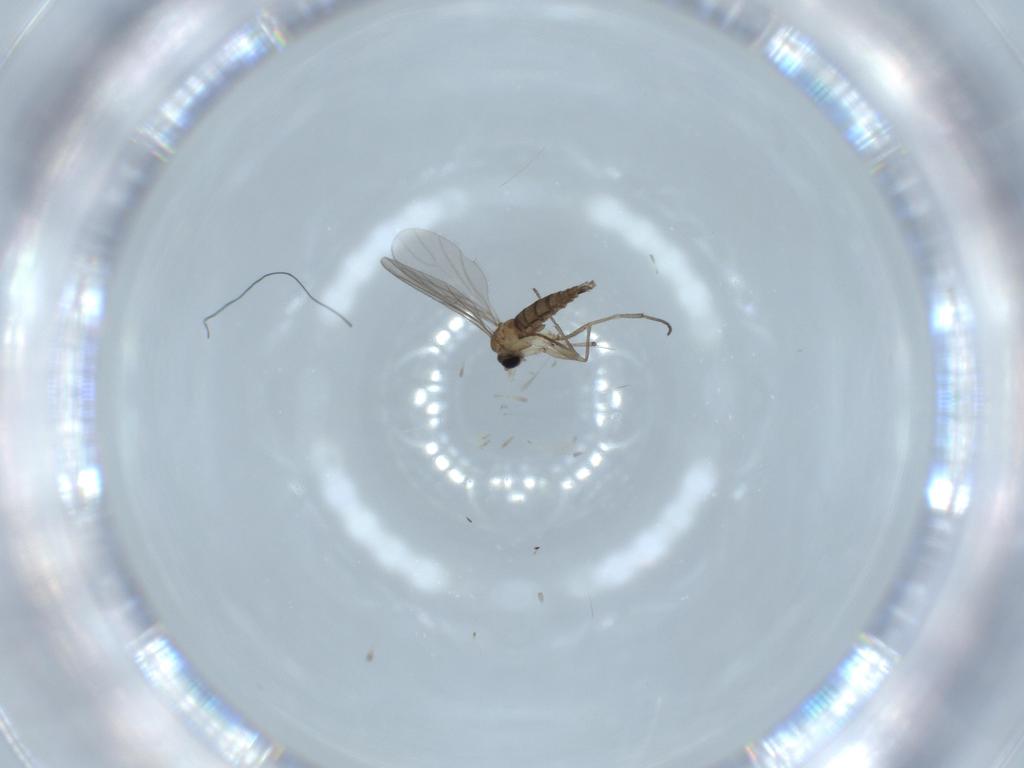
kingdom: Animalia
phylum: Arthropoda
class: Insecta
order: Diptera
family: Sciaridae
